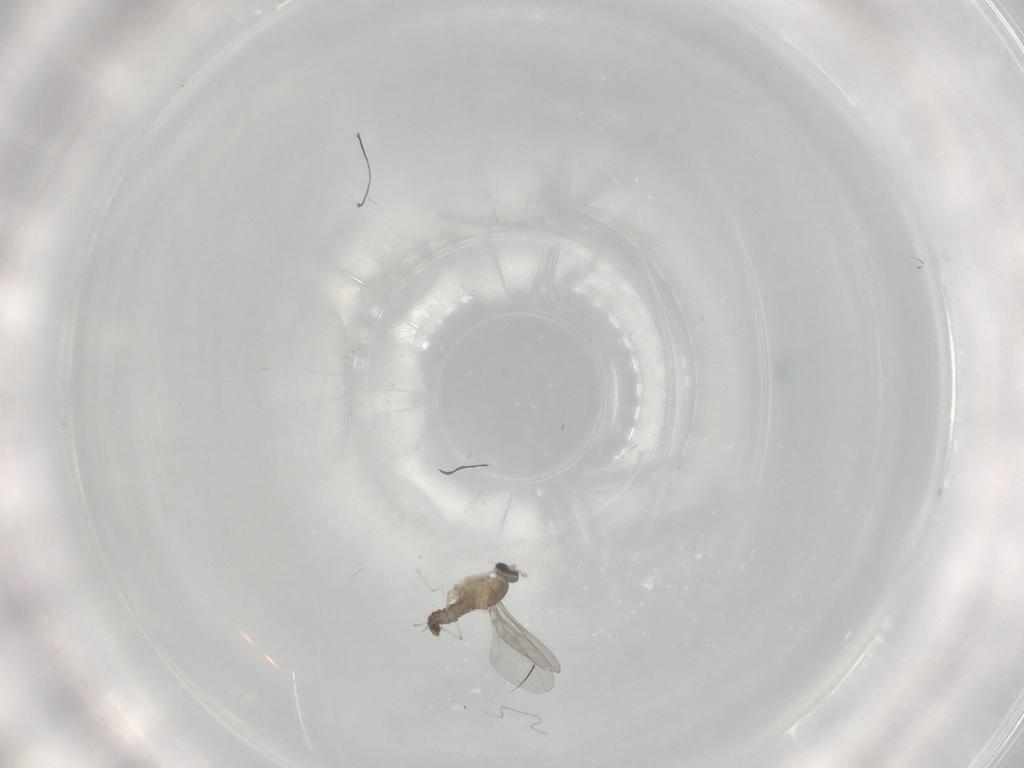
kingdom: Animalia
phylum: Arthropoda
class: Insecta
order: Diptera
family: Cecidomyiidae
